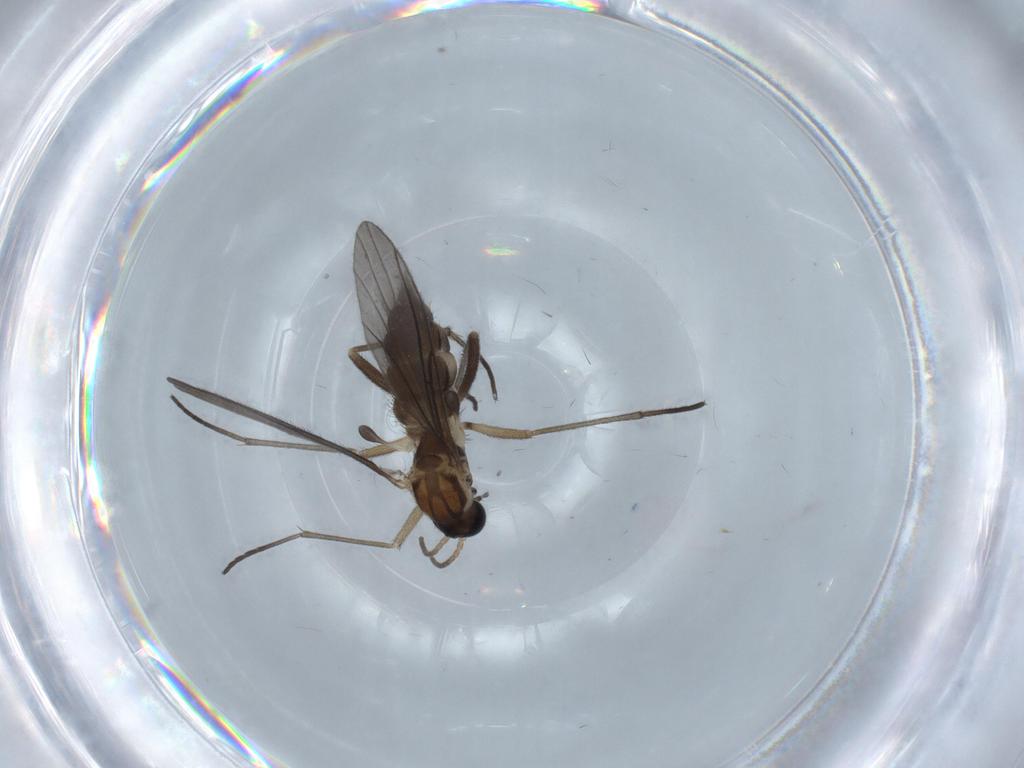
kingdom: Animalia
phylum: Arthropoda
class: Insecta
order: Diptera
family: Sciaridae
